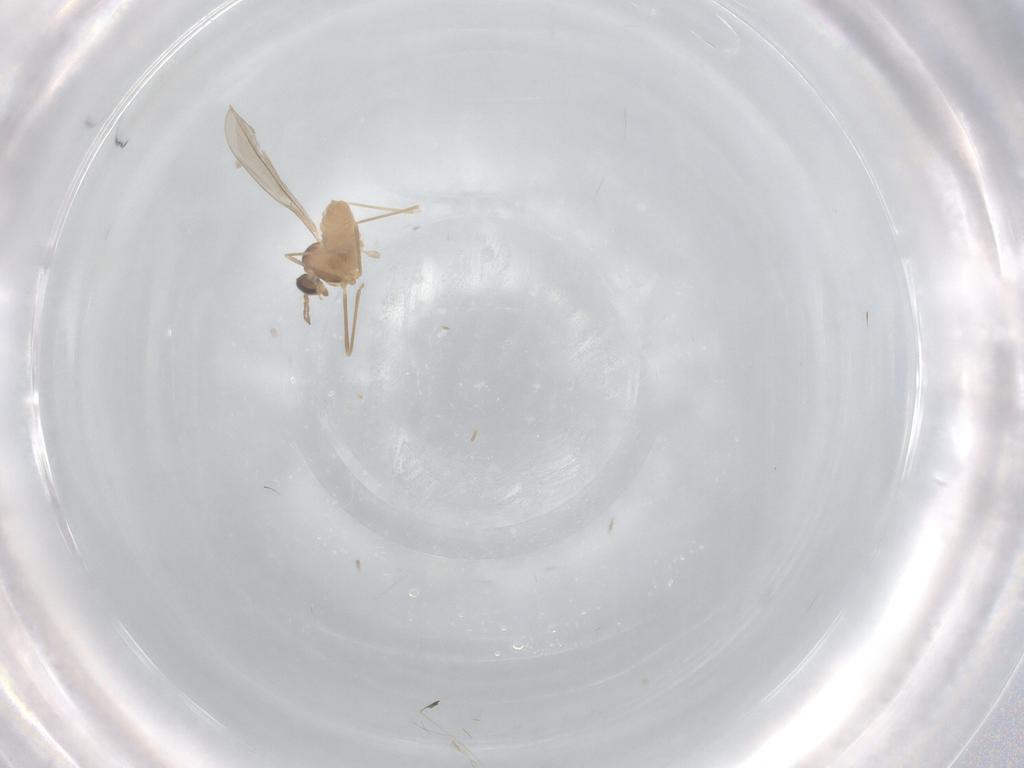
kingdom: Animalia
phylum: Arthropoda
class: Insecta
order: Diptera
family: Cecidomyiidae
